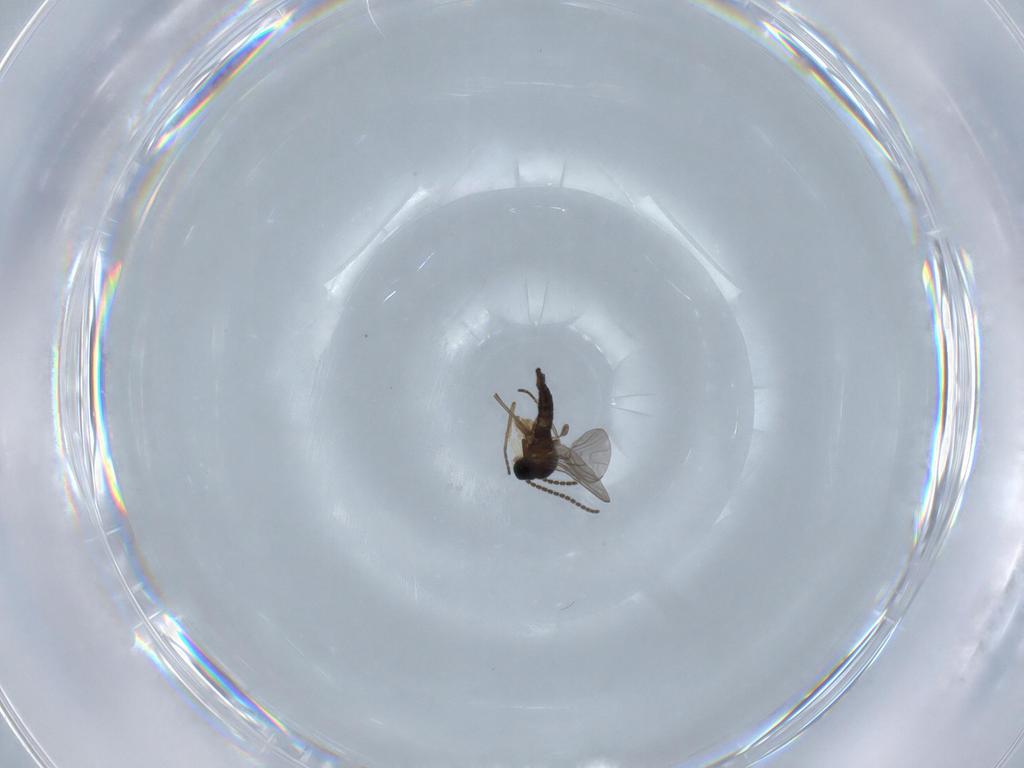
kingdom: Animalia
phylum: Arthropoda
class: Insecta
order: Diptera
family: Sciaridae
